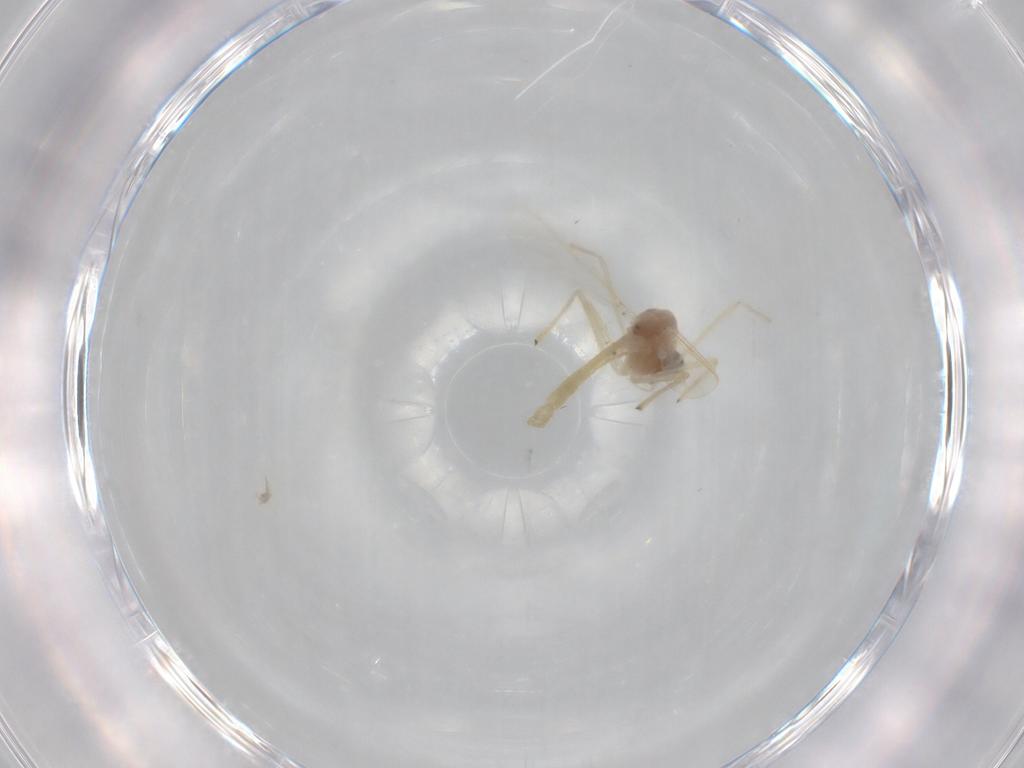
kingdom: Animalia
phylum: Arthropoda
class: Insecta
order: Diptera
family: Chironomidae
